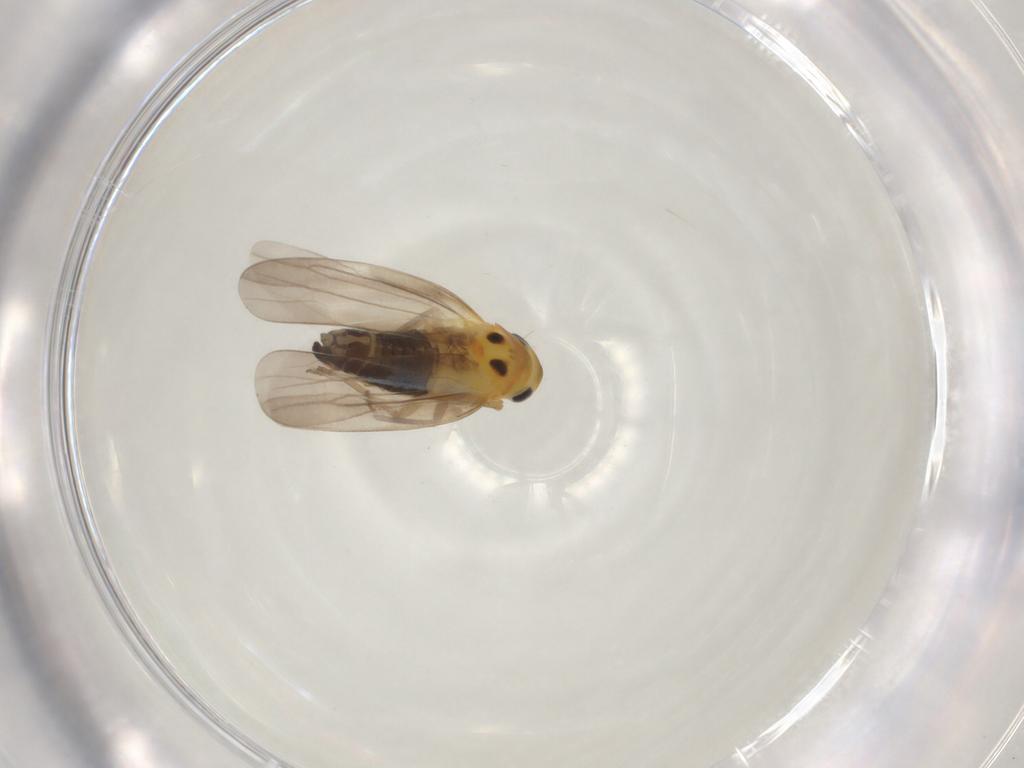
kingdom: Animalia
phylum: Arthropoda
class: Insecta
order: Hemiptera
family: Cicadellidae
